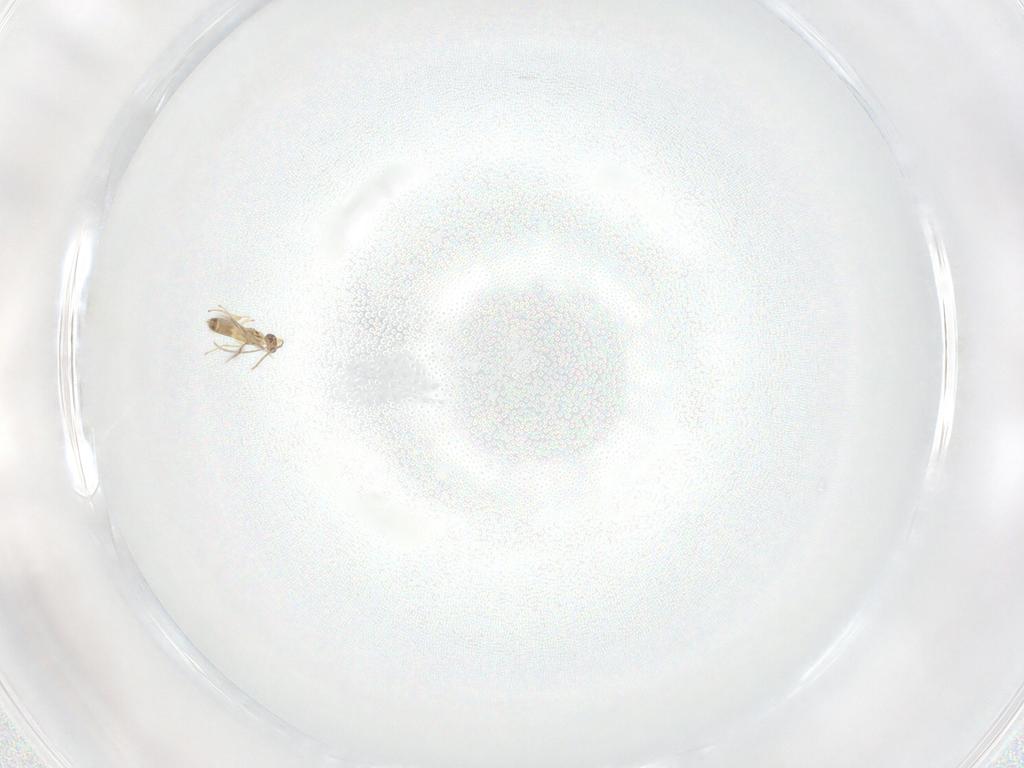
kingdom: Animalia
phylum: Arthropoda
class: Insecta
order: Hymenoptera
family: Mymaridae
